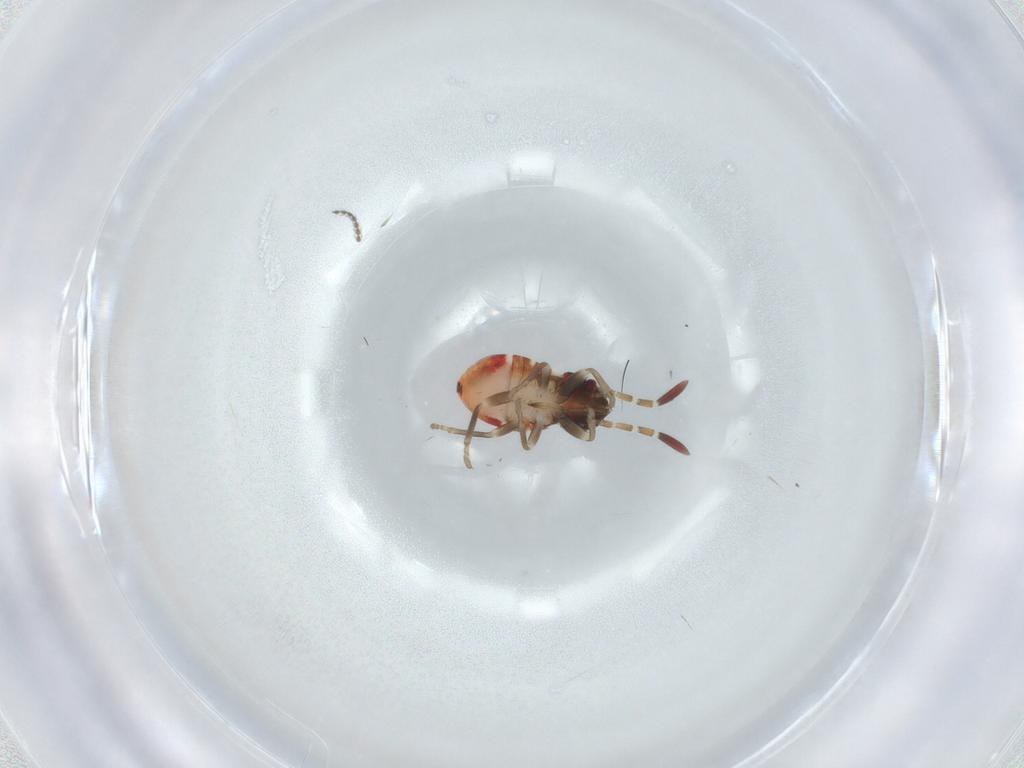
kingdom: Animalia
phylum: Arthropoda
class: Insecta
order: Hemiptera
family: Rhyparochromidae
